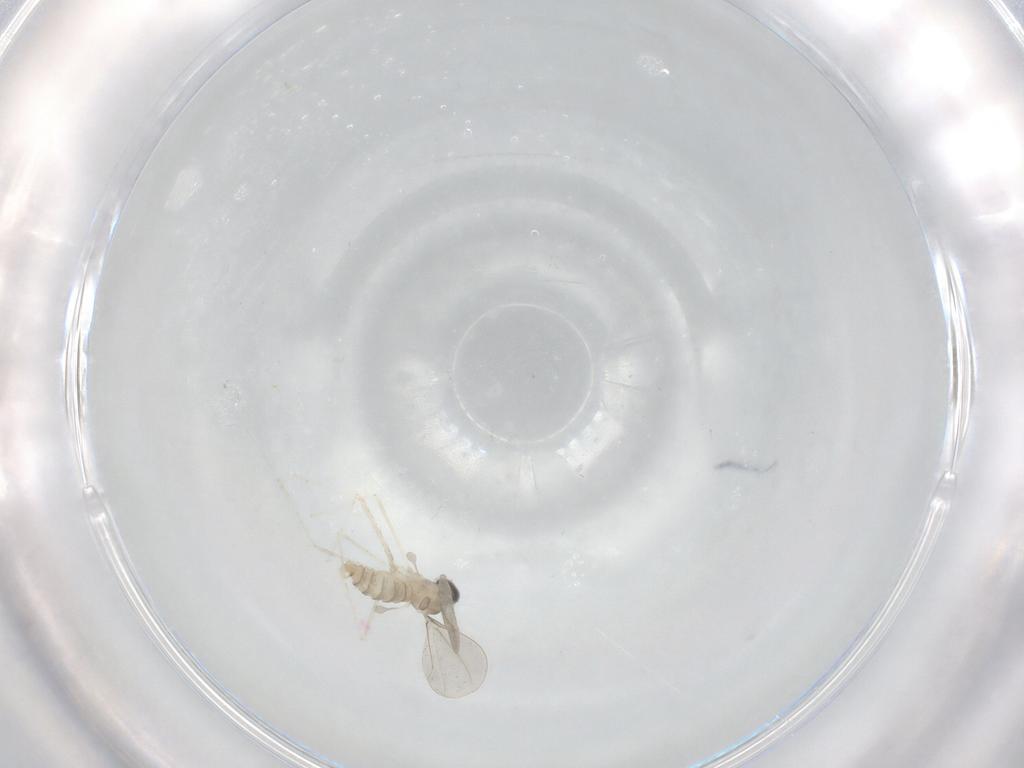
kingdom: Animalia
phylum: Arthropoda
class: Insecta
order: Diptera
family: Cecidomyiidae
